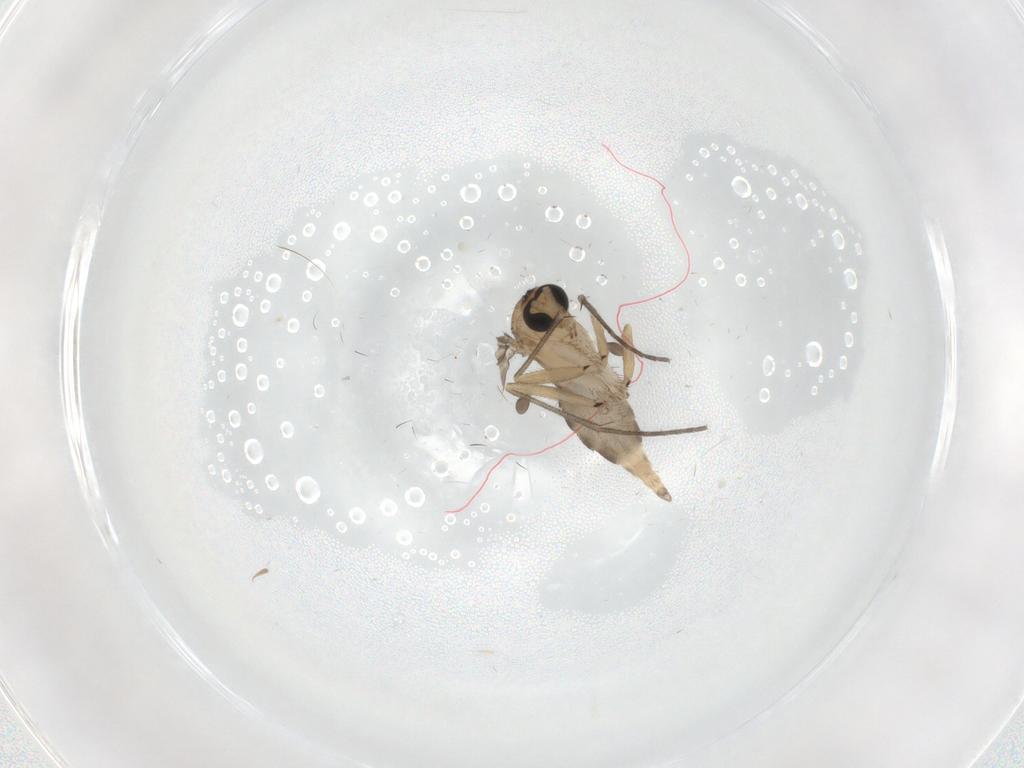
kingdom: Animalia
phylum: Arthropoda
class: Insecta
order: Diptera
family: Sciaridae
